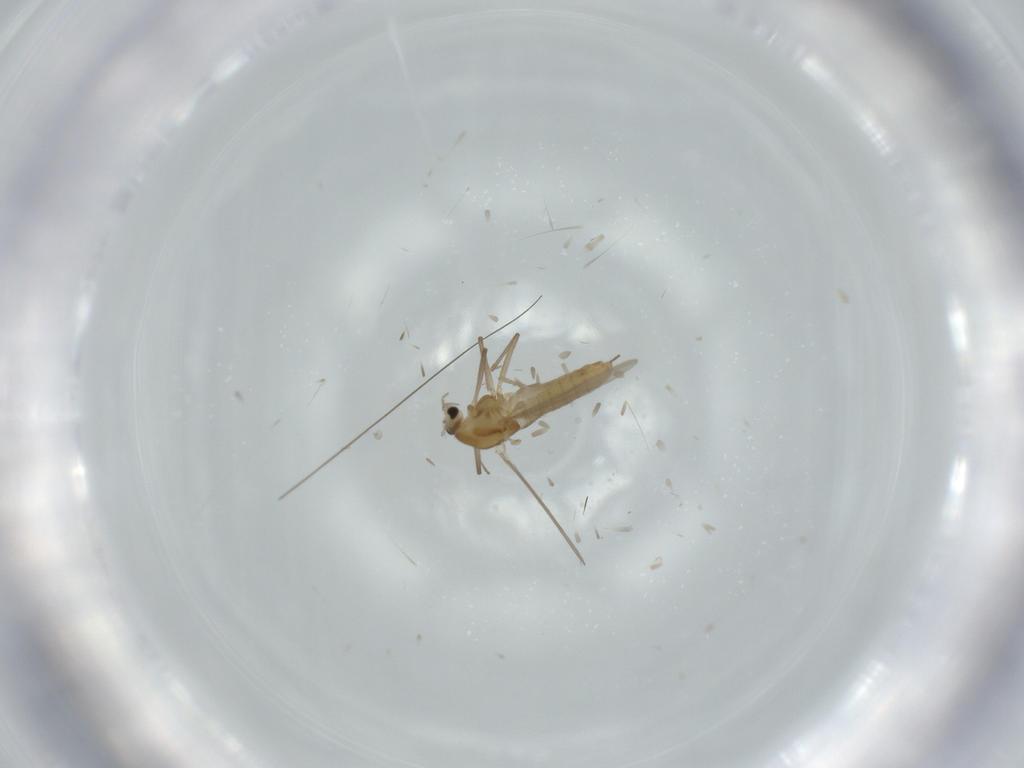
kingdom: Animalia
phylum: Arthropoda
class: Insecta
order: Diptera
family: Chironomidae
